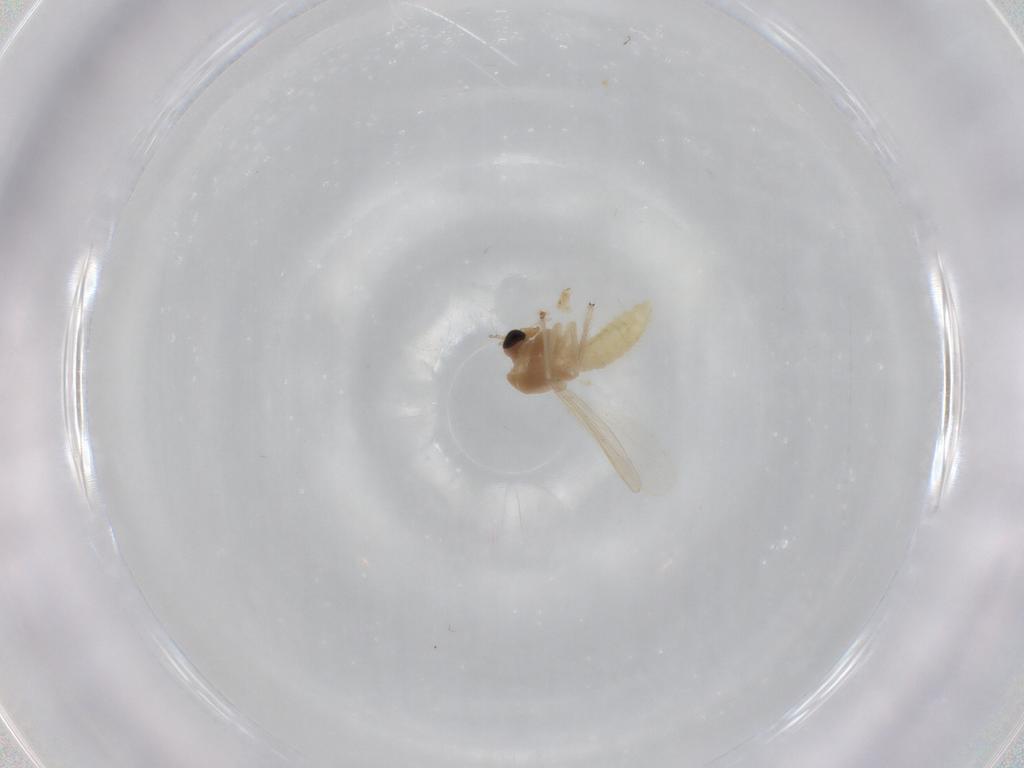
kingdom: Animalia
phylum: Arthropoda
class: Insecta
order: Diptera
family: Chironomidae
